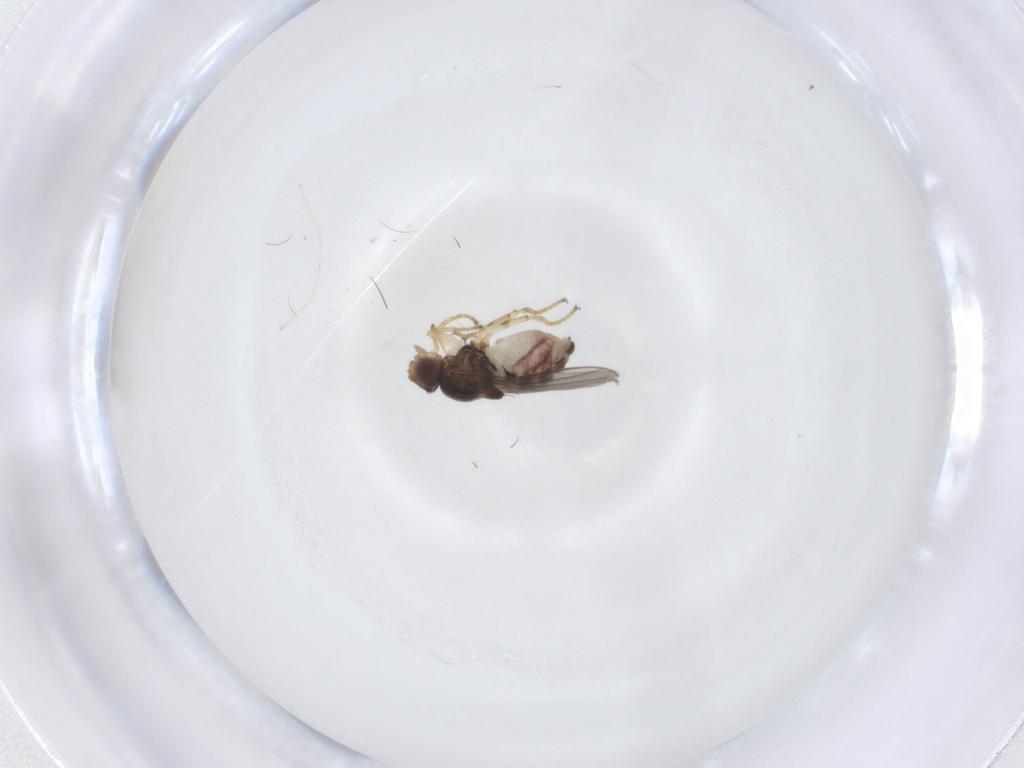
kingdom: Animalia
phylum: Arthropoda
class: Insecta
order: Diptera
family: Chloropidae
